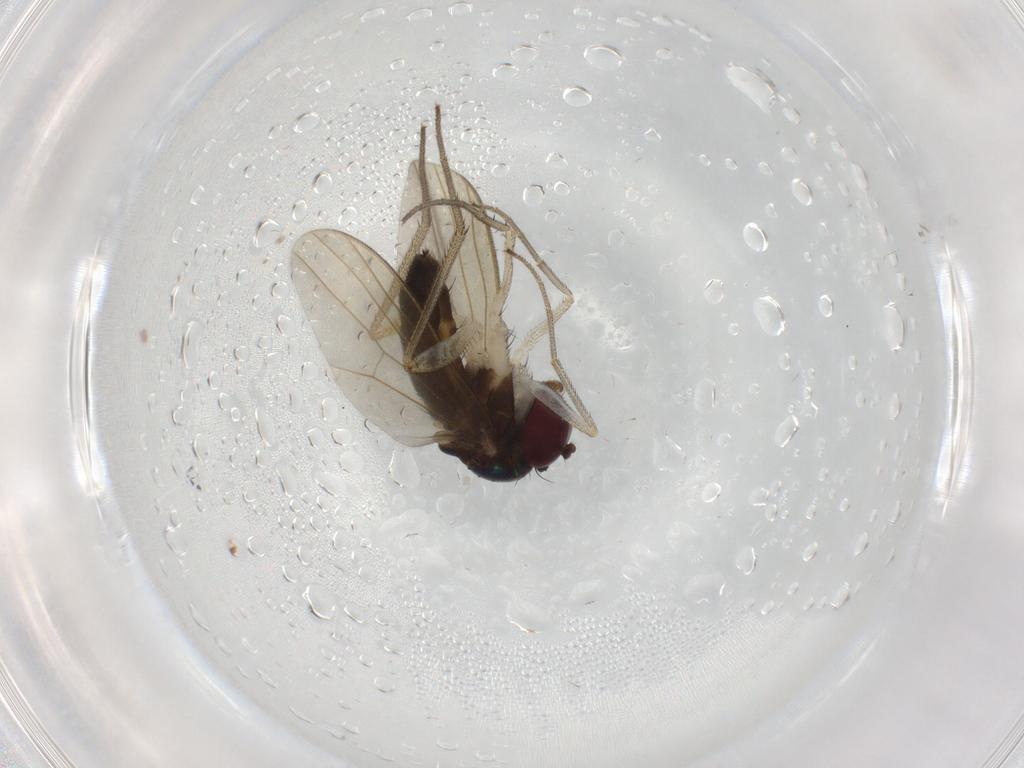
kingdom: Animalia
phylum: Arthropoda
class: Insecta
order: Diptera
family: Dolichopodidae
